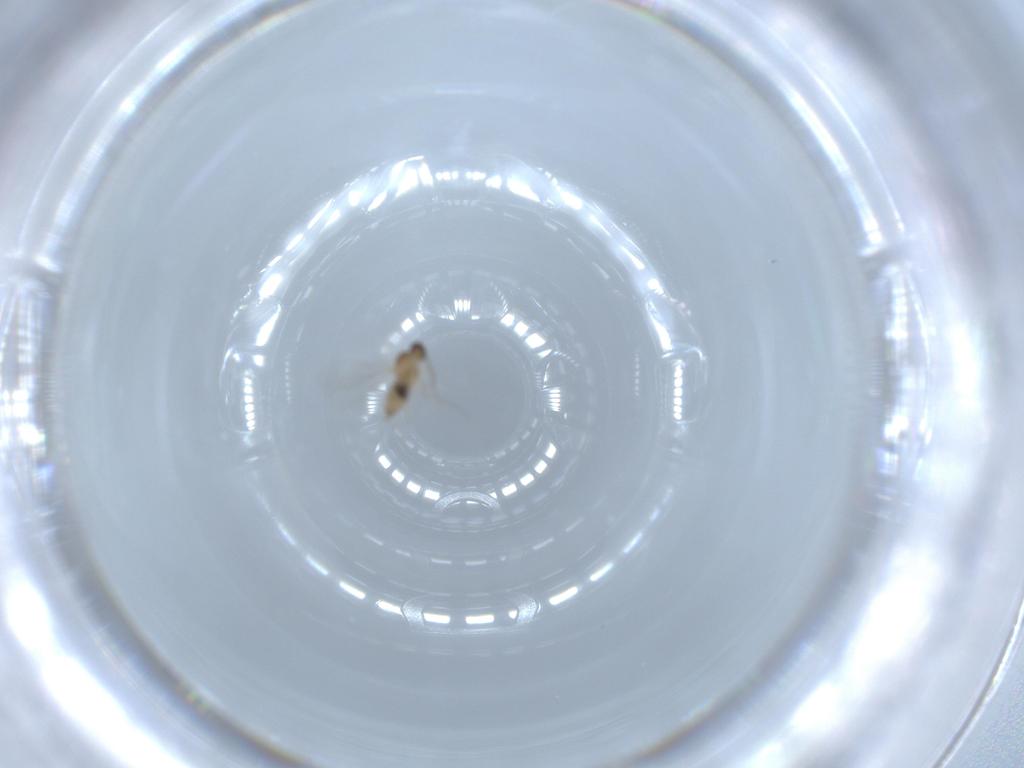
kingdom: Animalia
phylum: Arthropoda
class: Insecta
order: Diptera
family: Cecidomyiidae
